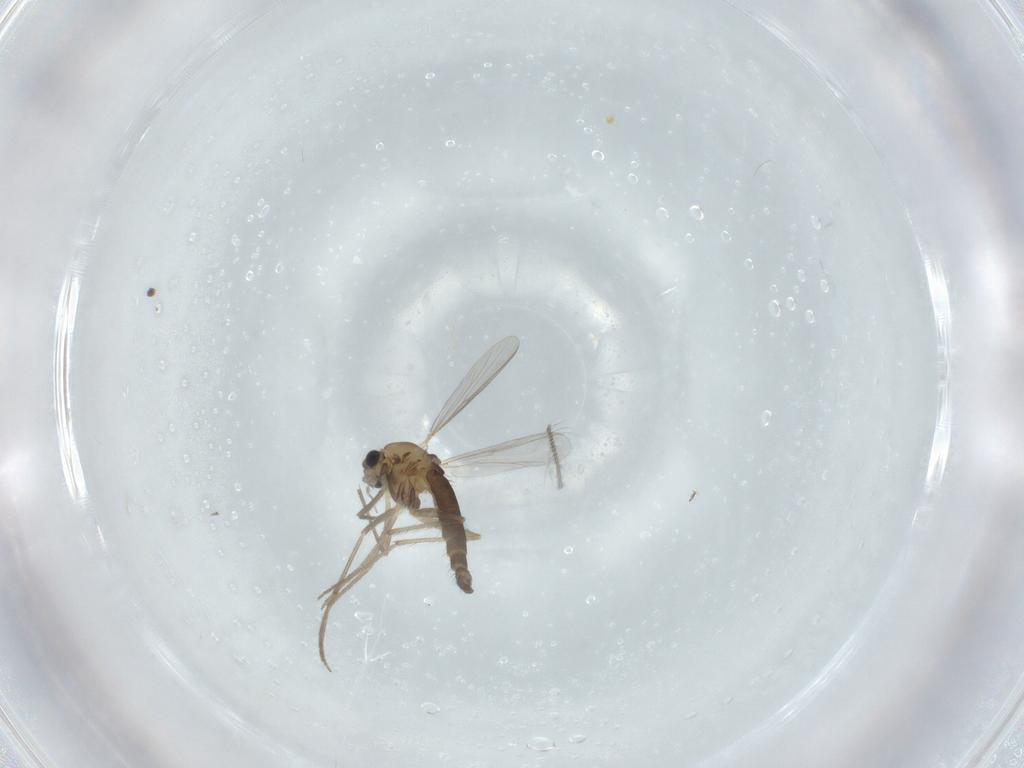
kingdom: Animalia
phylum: Arthropoda
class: Insecta
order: Diptera
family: Chironomidae
